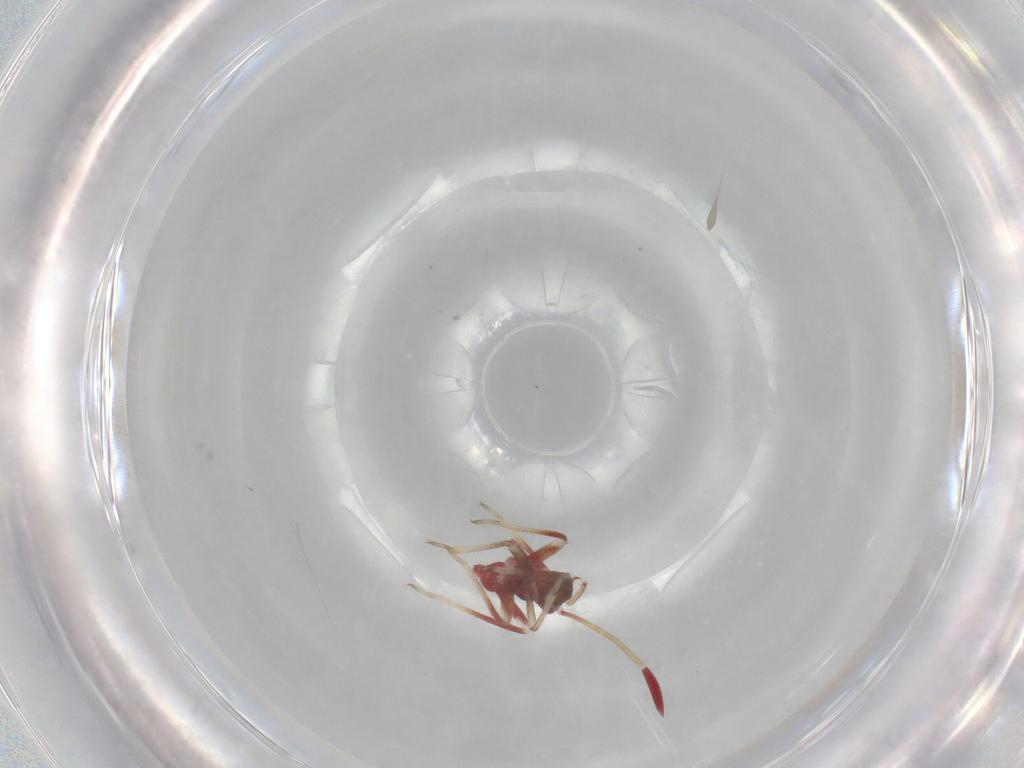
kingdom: Animalia
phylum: Arthropoda
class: Insecta
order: Hemiptera
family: Miridae
